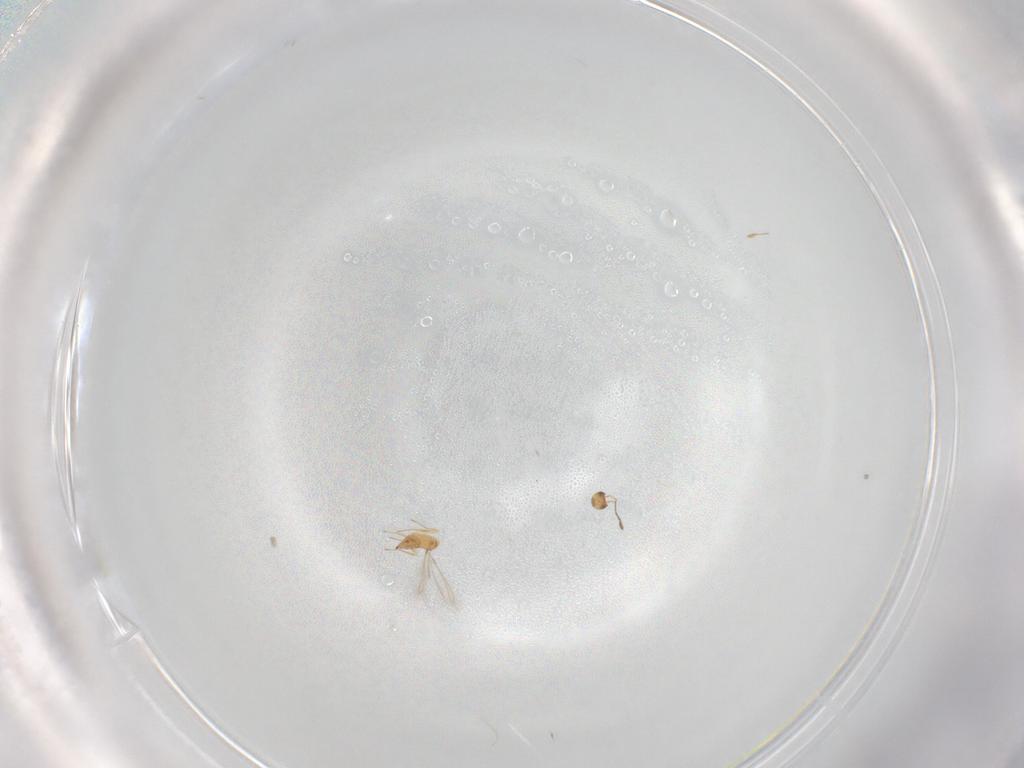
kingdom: Animalia
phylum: Arthropoda
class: Insecta
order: Hymenoptera
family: Mymaridae
